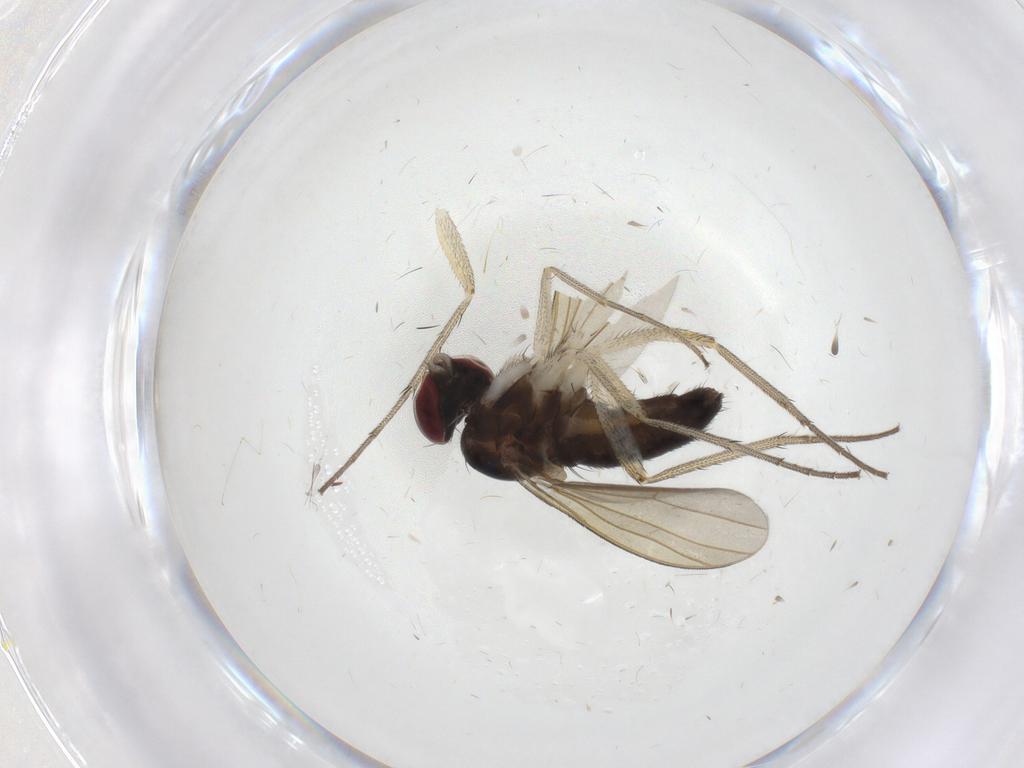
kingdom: Animalia
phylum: Arthropoda
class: Insecta
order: Diptera
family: Dolichopodidae
